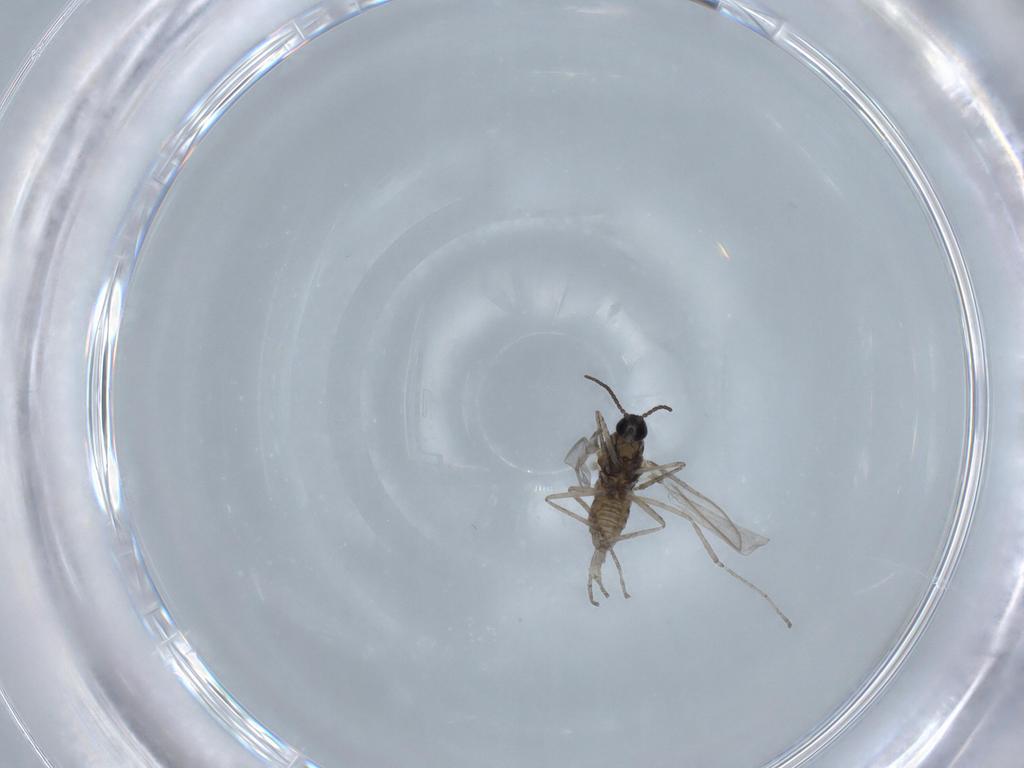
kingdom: Animalia
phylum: Arthropoda
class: Insecta
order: Diptera
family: Cecidomyiidae
